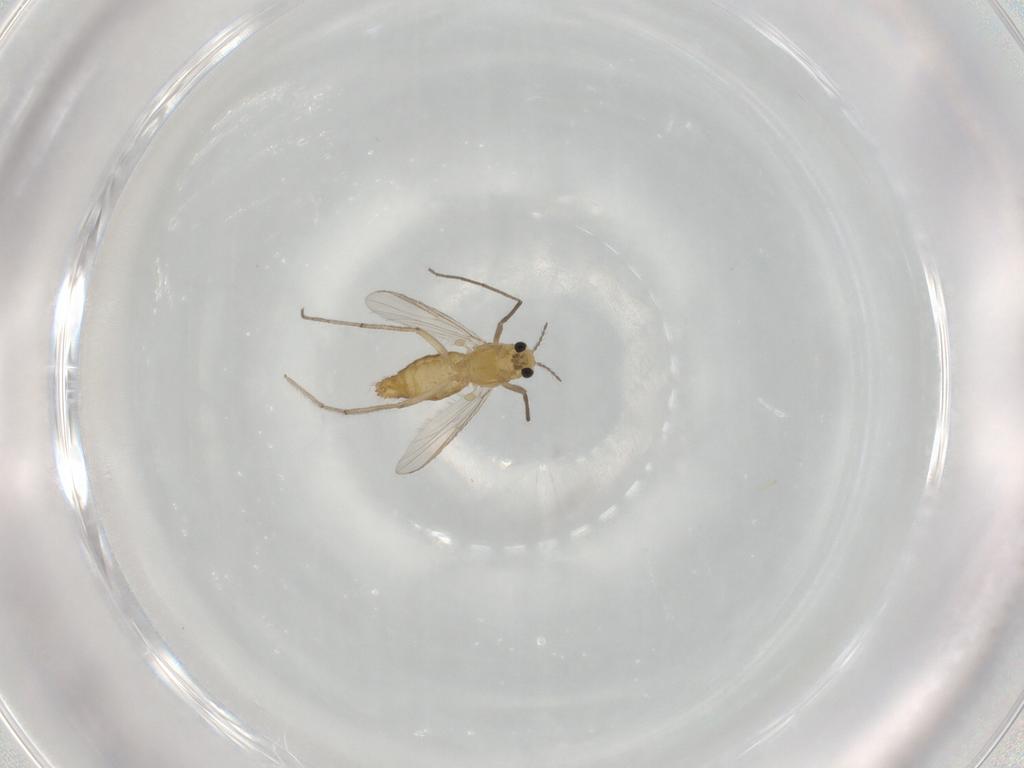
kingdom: Animalia
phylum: Arthropoda
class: Insecta
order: Diptera
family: Chironomidae
